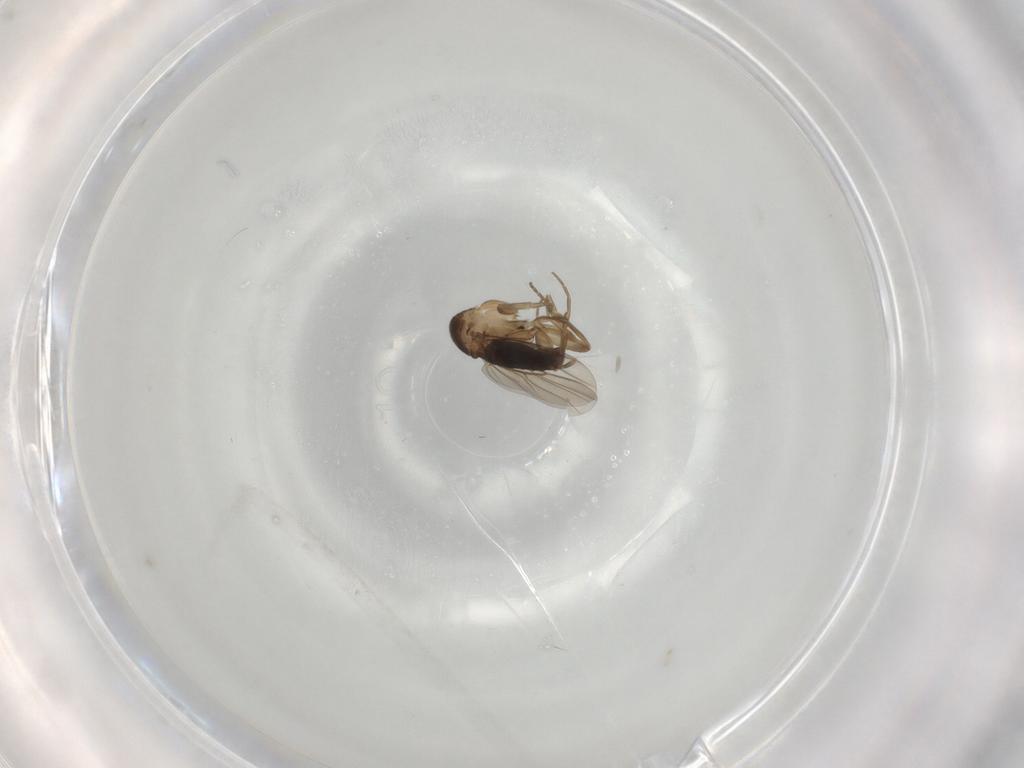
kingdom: Animalia
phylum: Arthropoda
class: Insecta
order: Diptera
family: Phoridae
